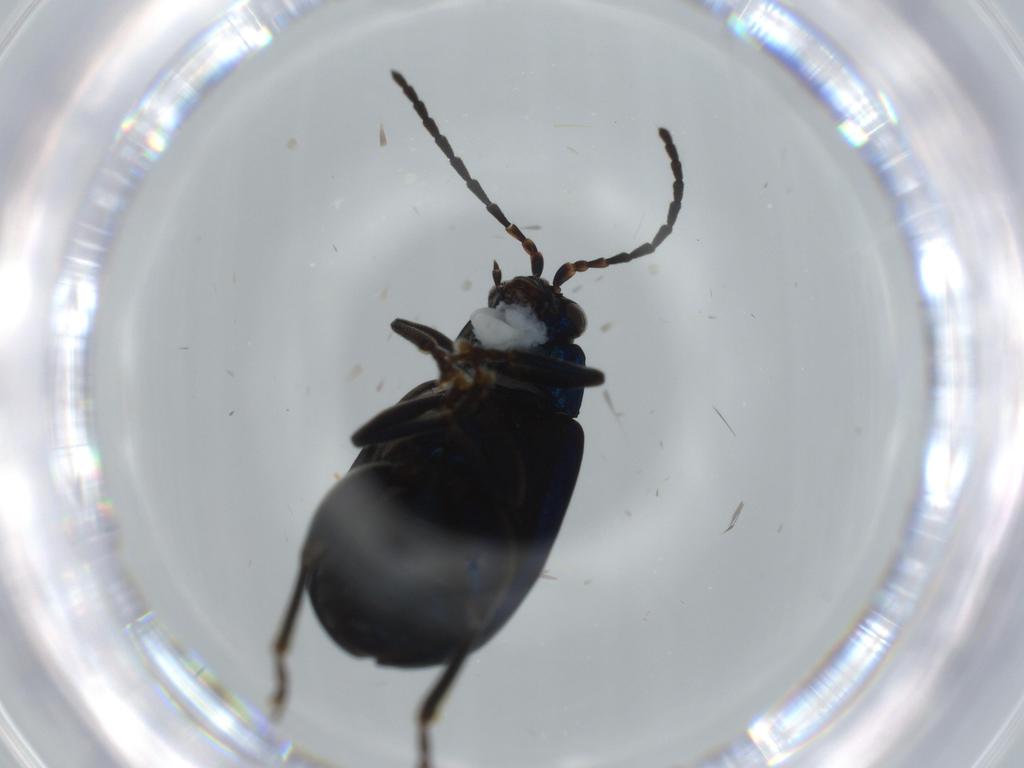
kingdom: Animalia
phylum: Arthropoda
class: Insecta
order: Coleoptera
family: Chrysomelidae
